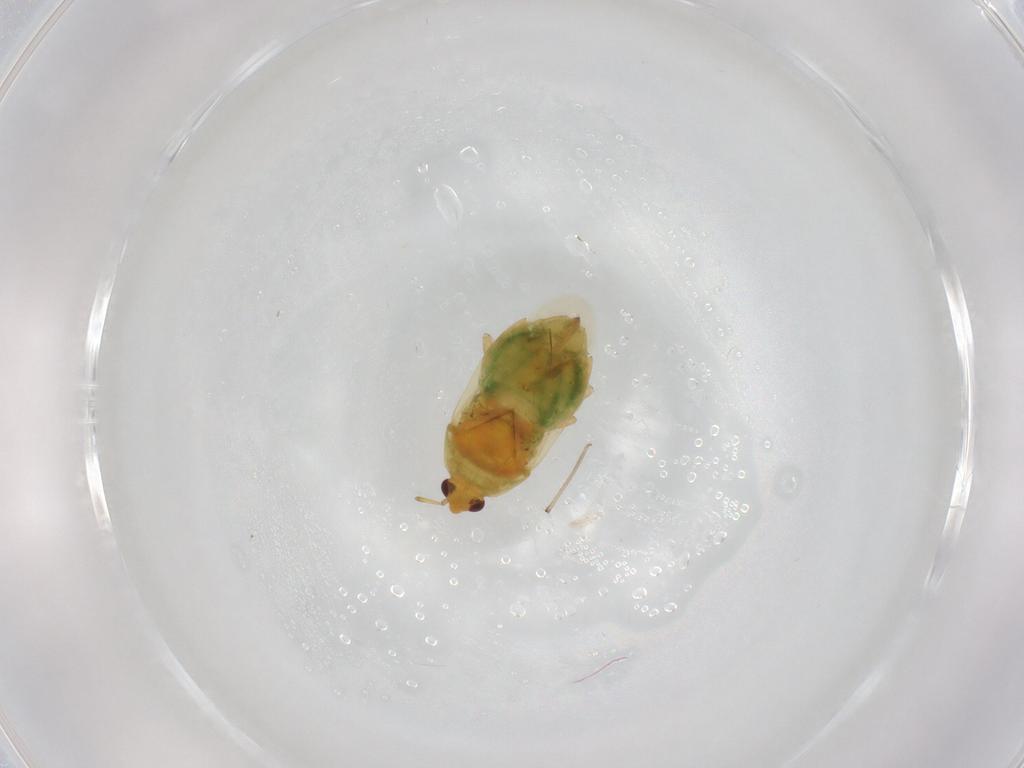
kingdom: Animalia
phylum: Arthropoda
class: Insecta
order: Hemiptera
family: Anthocoridae
